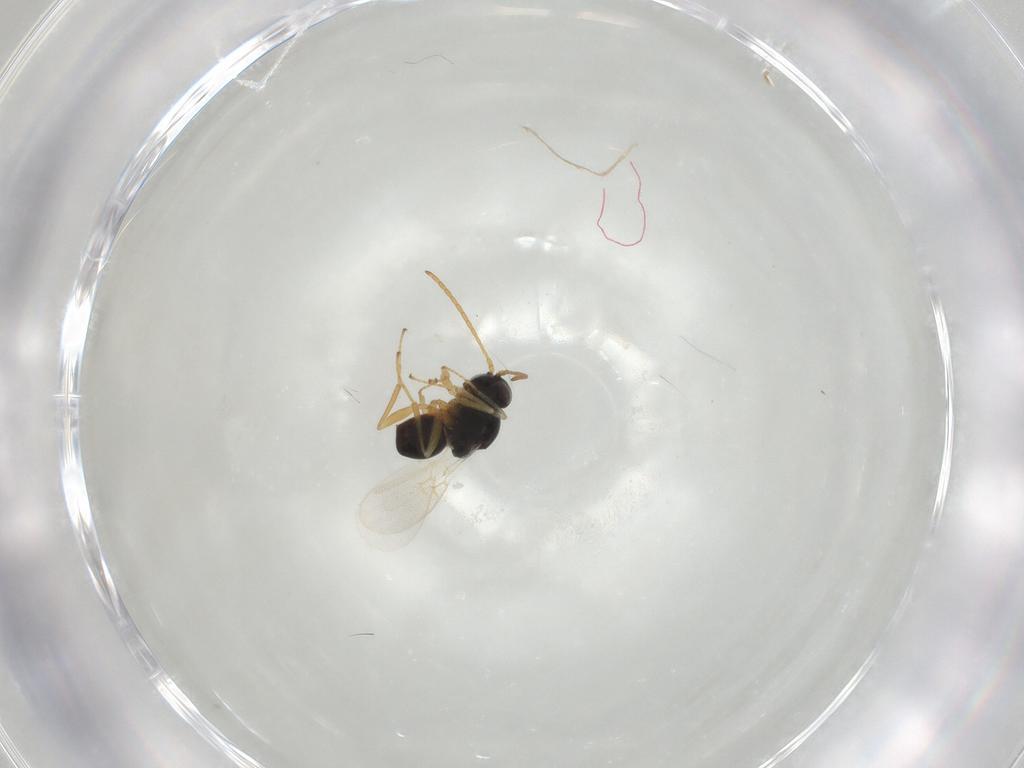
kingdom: Animalia
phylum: Arthropoda
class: Insecta
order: Hymenoptera
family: Figitidae
